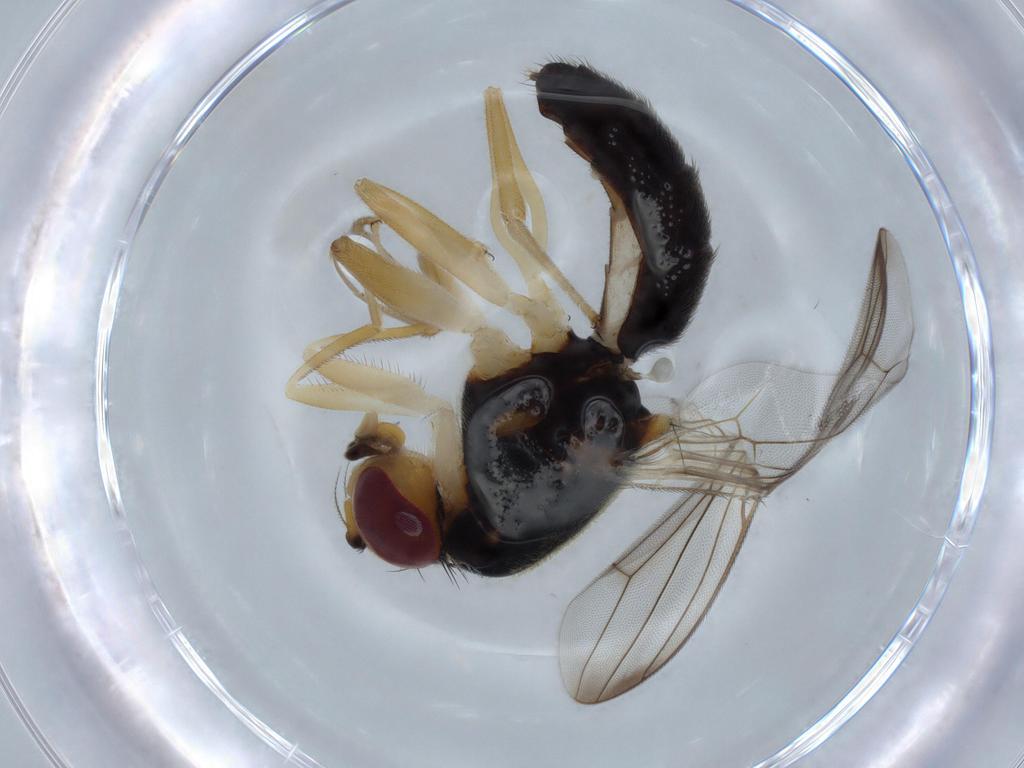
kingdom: Animalia
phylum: Arthropoda
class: Insecta
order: Diptera
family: Psilidae
